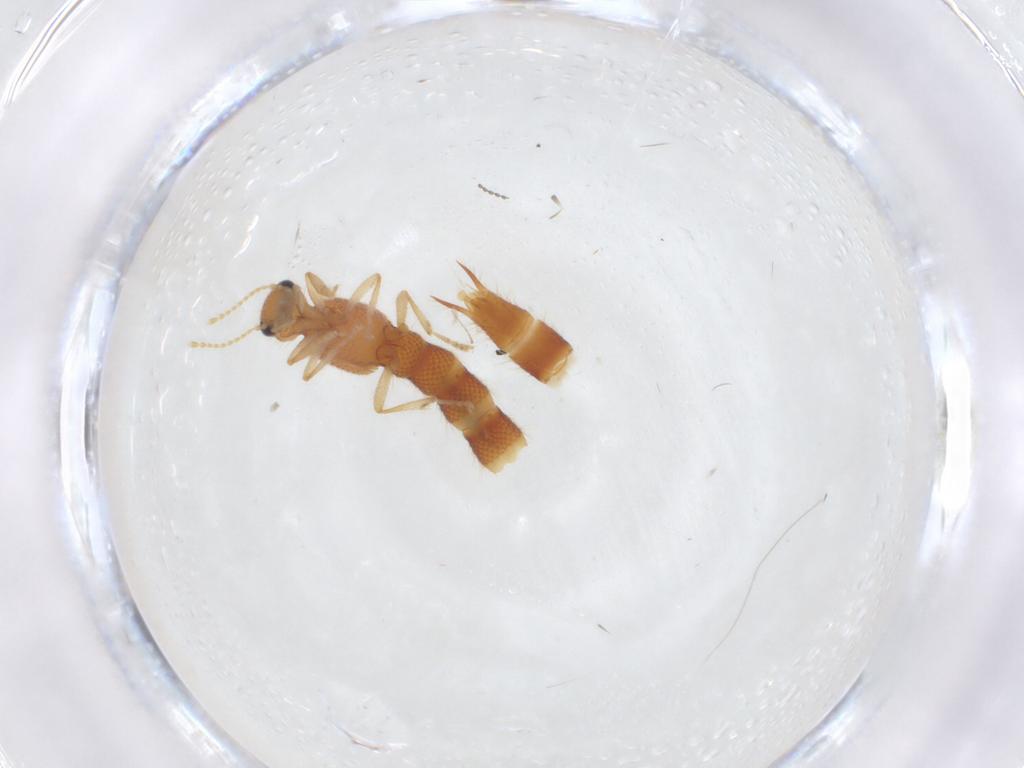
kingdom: Animalia
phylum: Arthropoda
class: Insecta
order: Coleoptera
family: Staphylinidae
